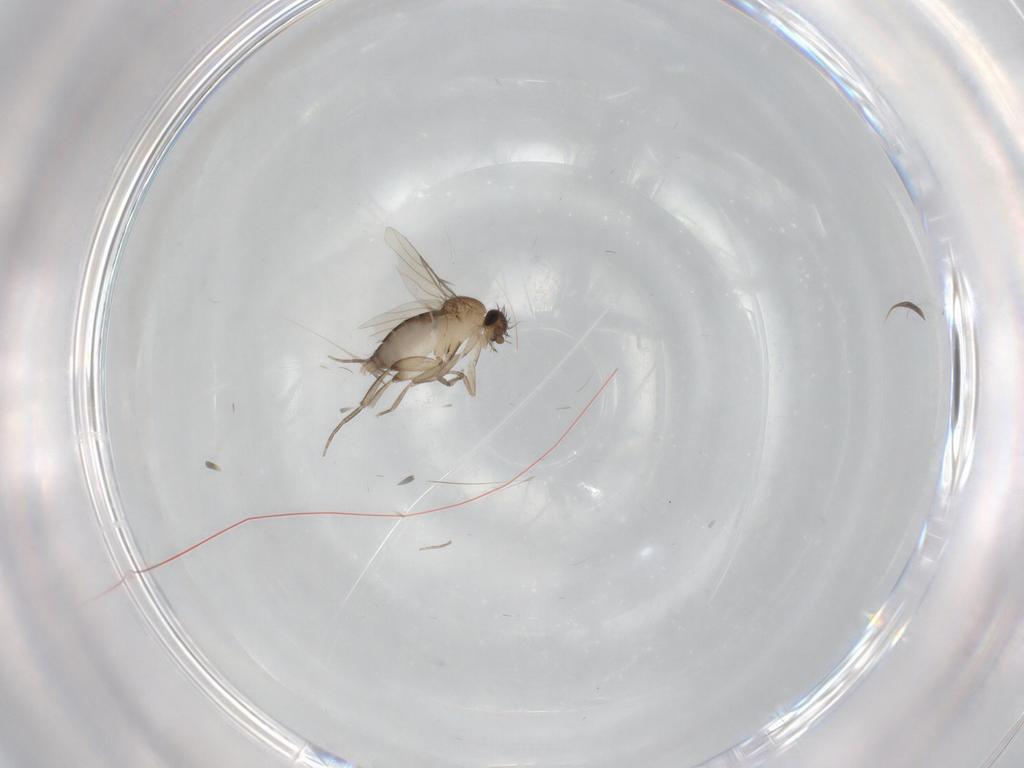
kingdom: Animalia
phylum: Arthropoda
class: Insecta
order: Diptera
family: Phoridae
